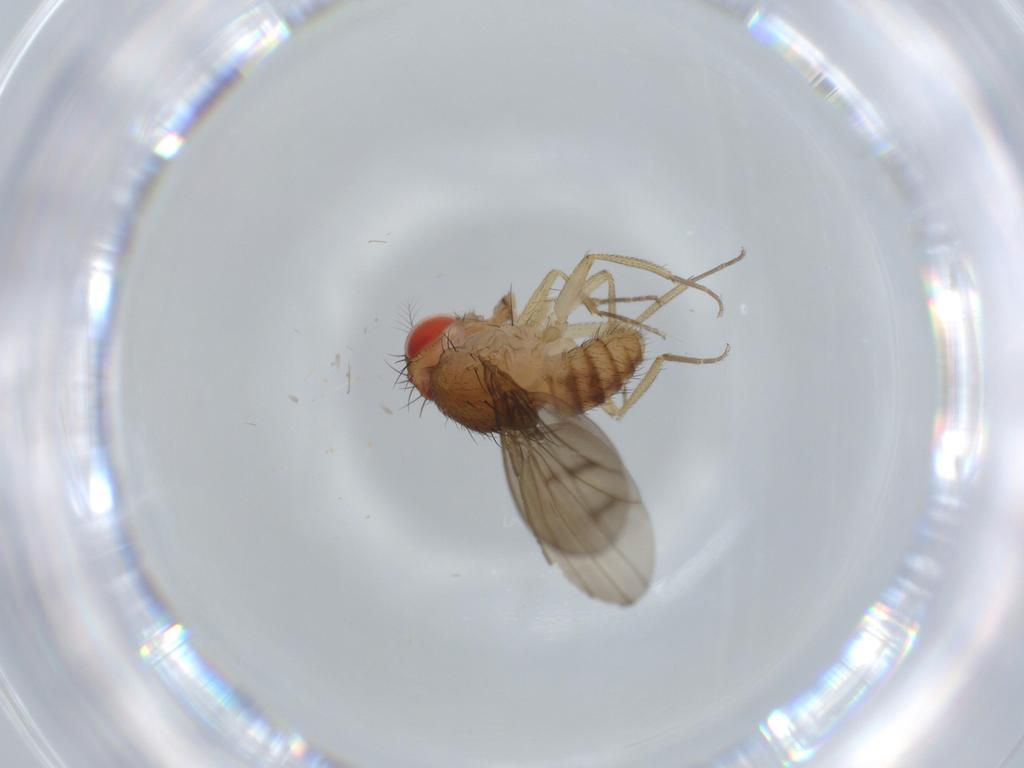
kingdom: Animalia
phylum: Arthropoda
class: Insecta
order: Diptera
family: Drosophilidae
